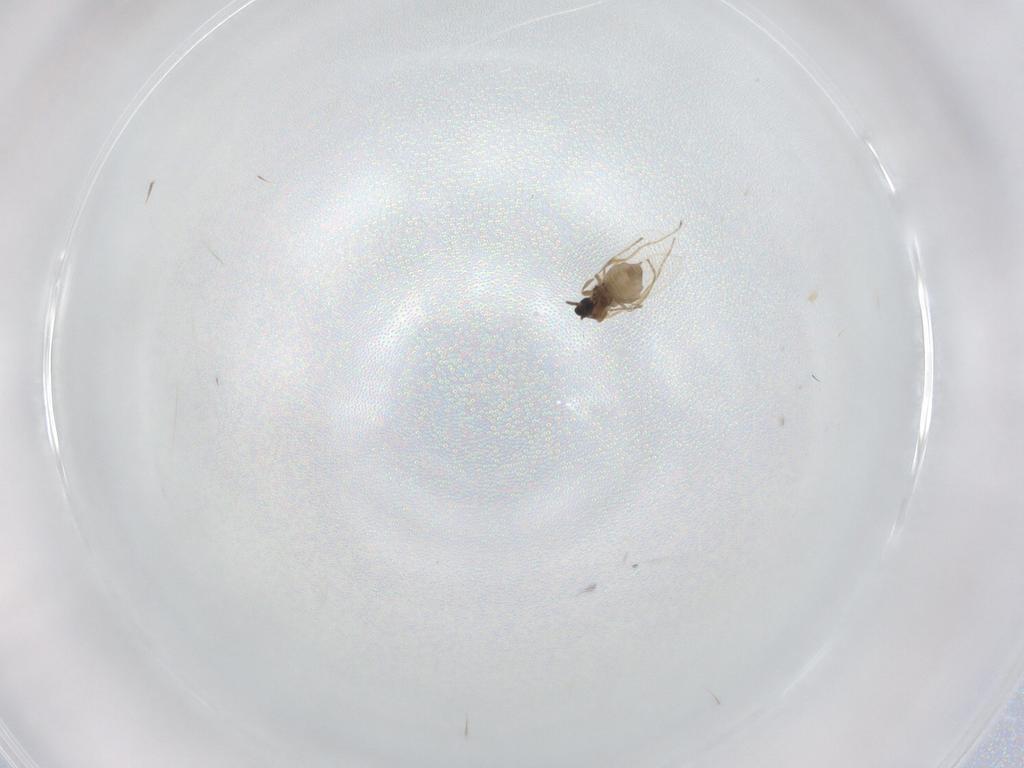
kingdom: Animalia
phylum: Arthropoda
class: Insecta
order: Diptera
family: Cecidomyiidae
